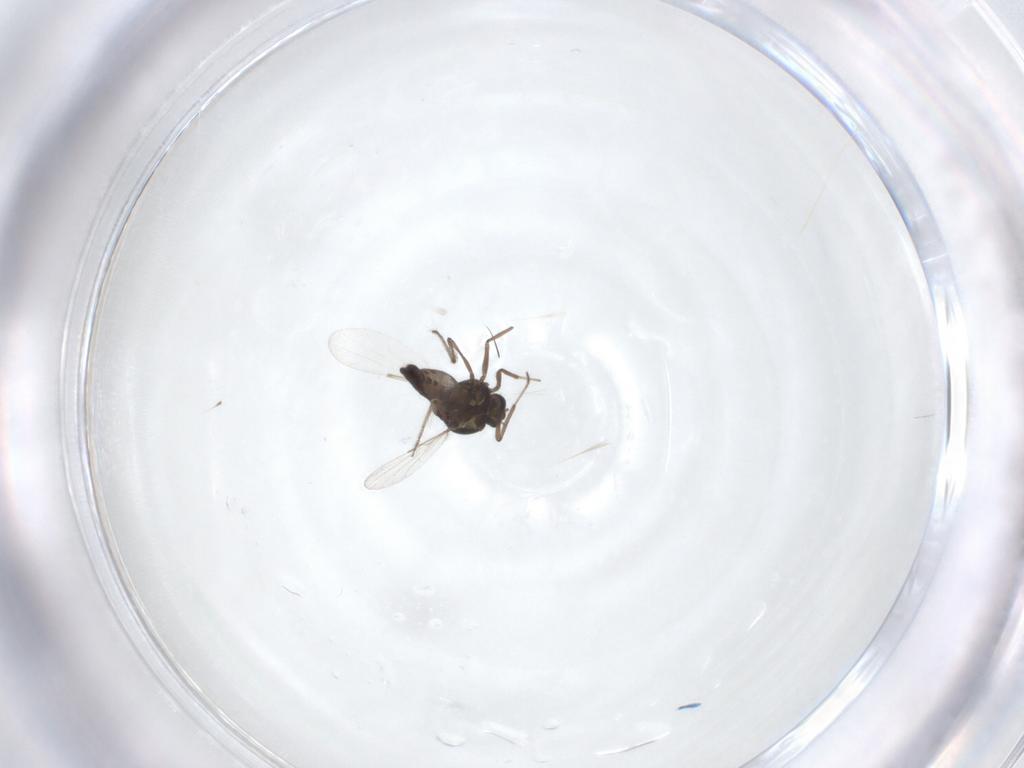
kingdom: Animalia
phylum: Arthropoda
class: Insecta
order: Diptera
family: Ceratopogonidae
